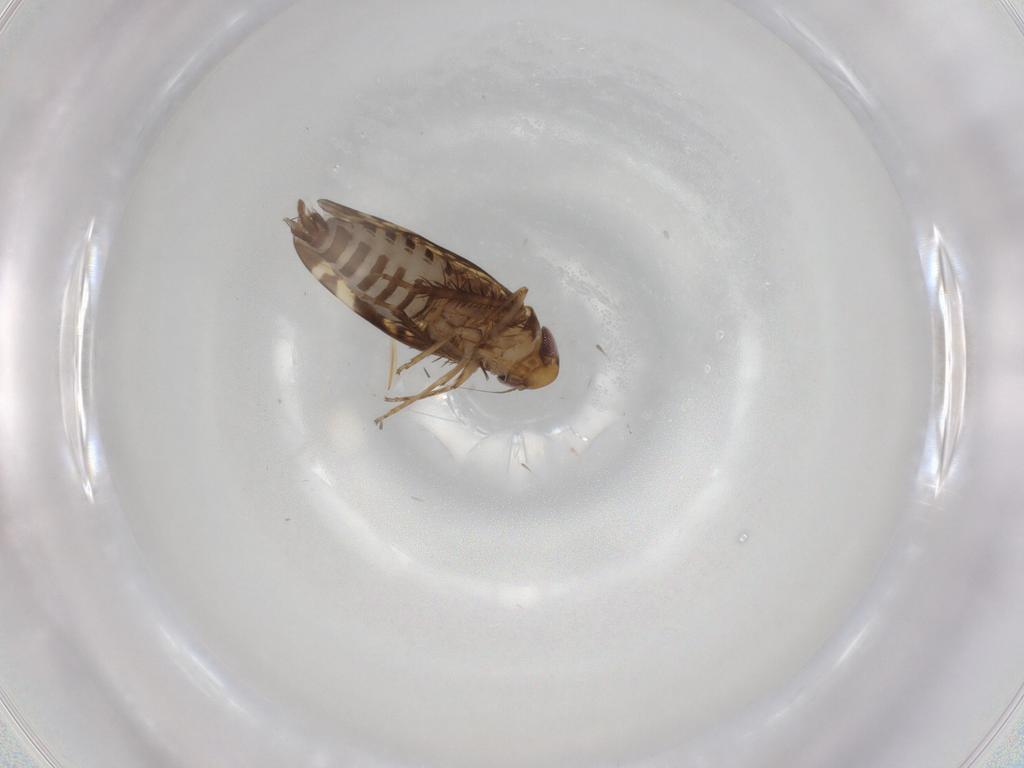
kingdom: Animalia
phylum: Arthropoda
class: Insecta
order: Hemiptera
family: Cicadellidae
